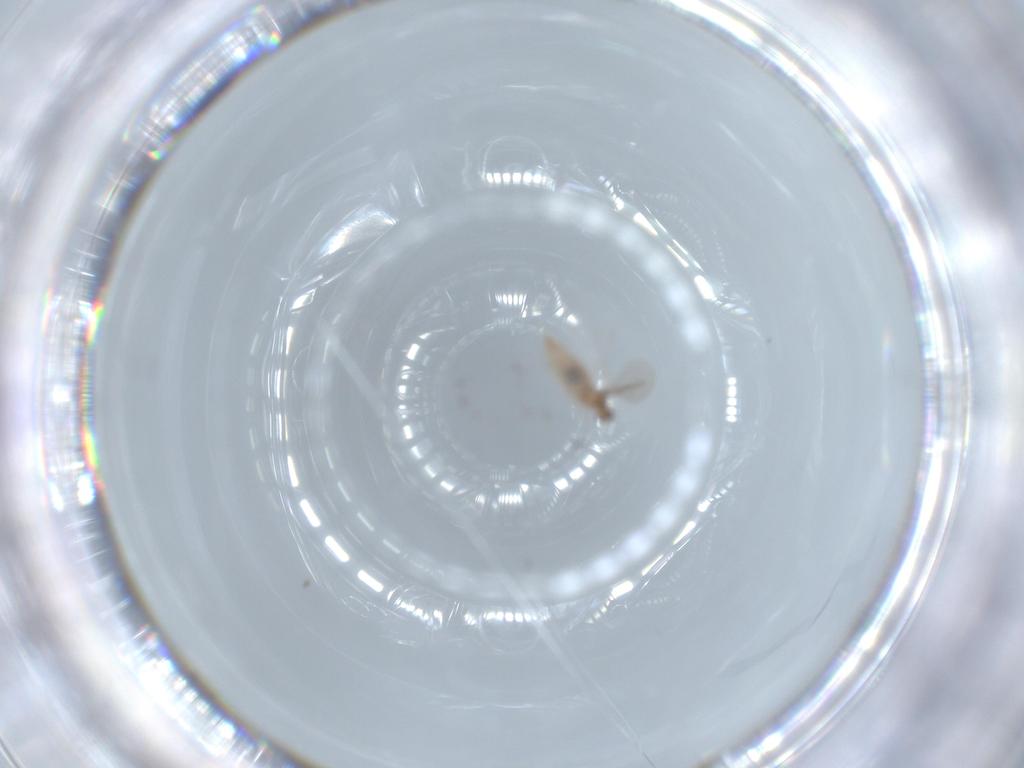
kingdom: Animalia
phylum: Arthropoda
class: Insecta
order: Diptera
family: Cecidomyiidae
